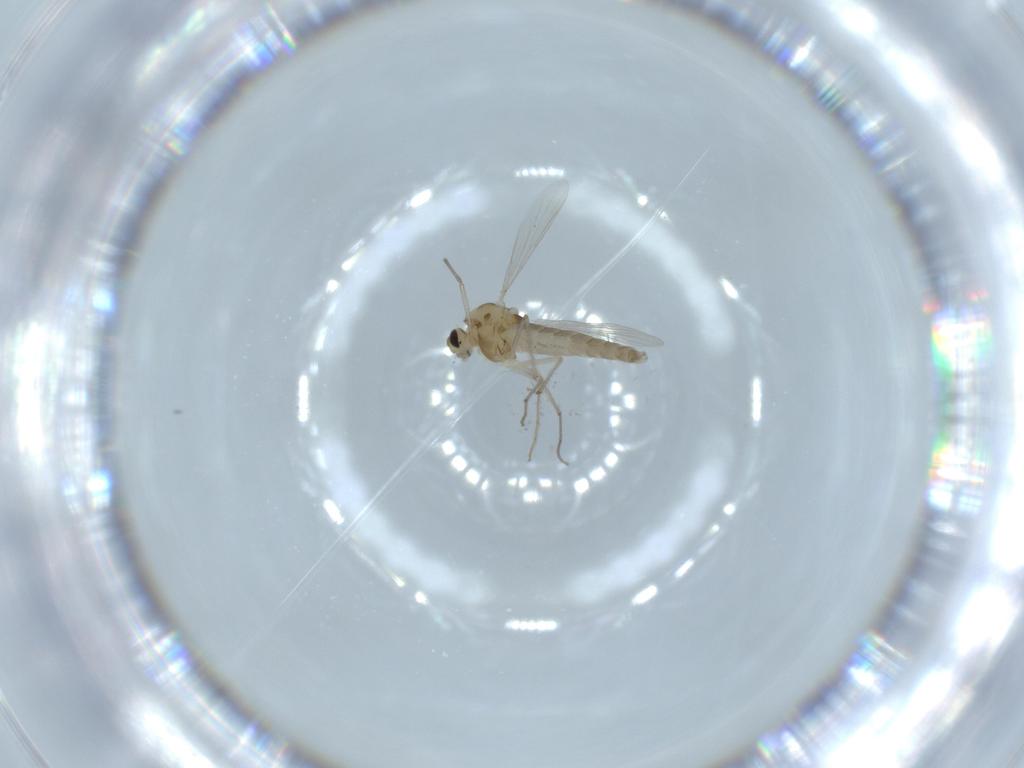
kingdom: Animalia
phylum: Arthropoda
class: Insecta
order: Diptera
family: Chironomidae
